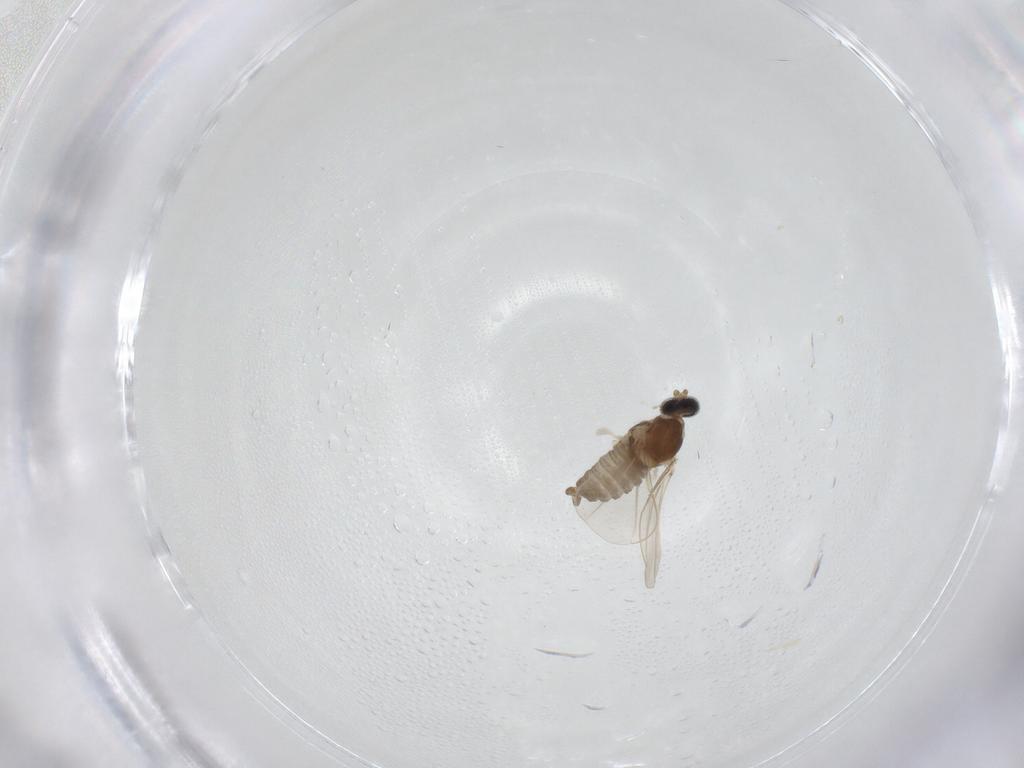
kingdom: Animalia
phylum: Arthropoda
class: Insecta
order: Diptera
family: Cecidomyiidae
